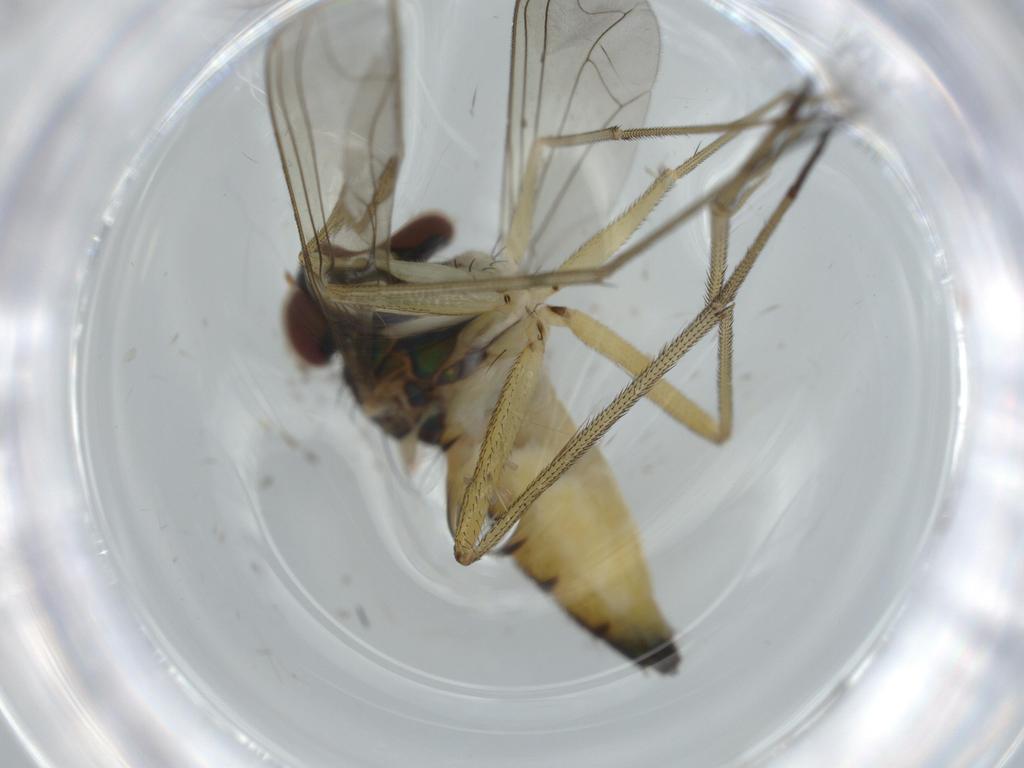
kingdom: Animalia
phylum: Arthropoda
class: Insecta
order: Diptera
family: Dolichopodidae
